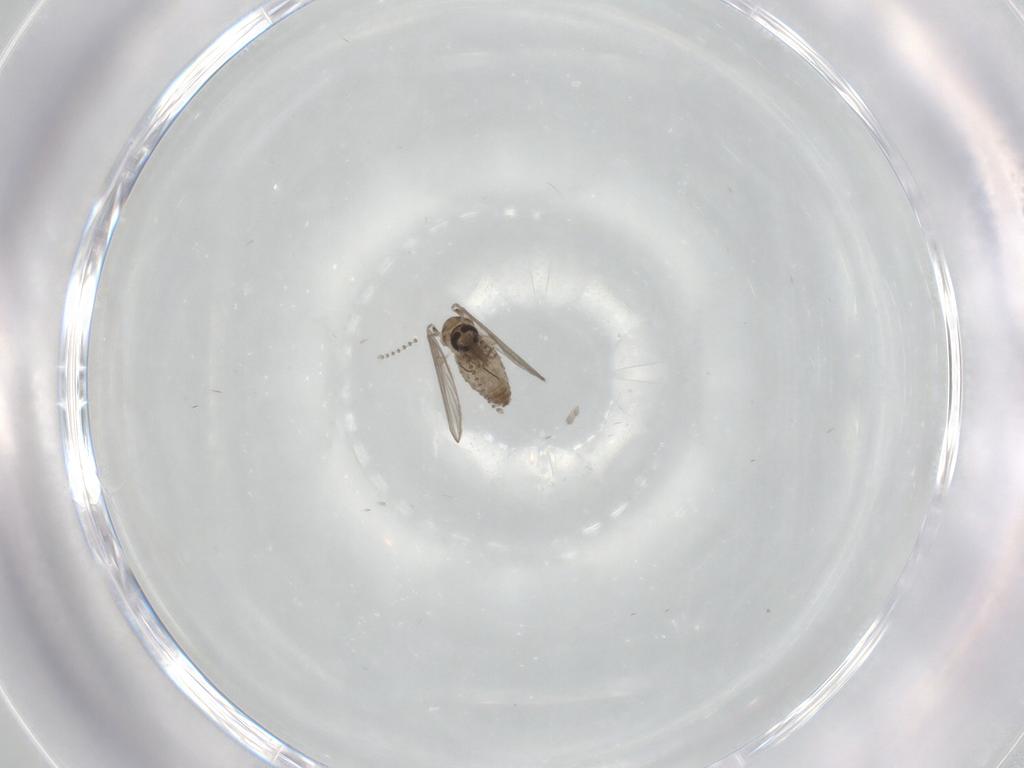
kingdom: Animalia
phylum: Arthropoda
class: Insecta
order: Diptera
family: Psychodidae
